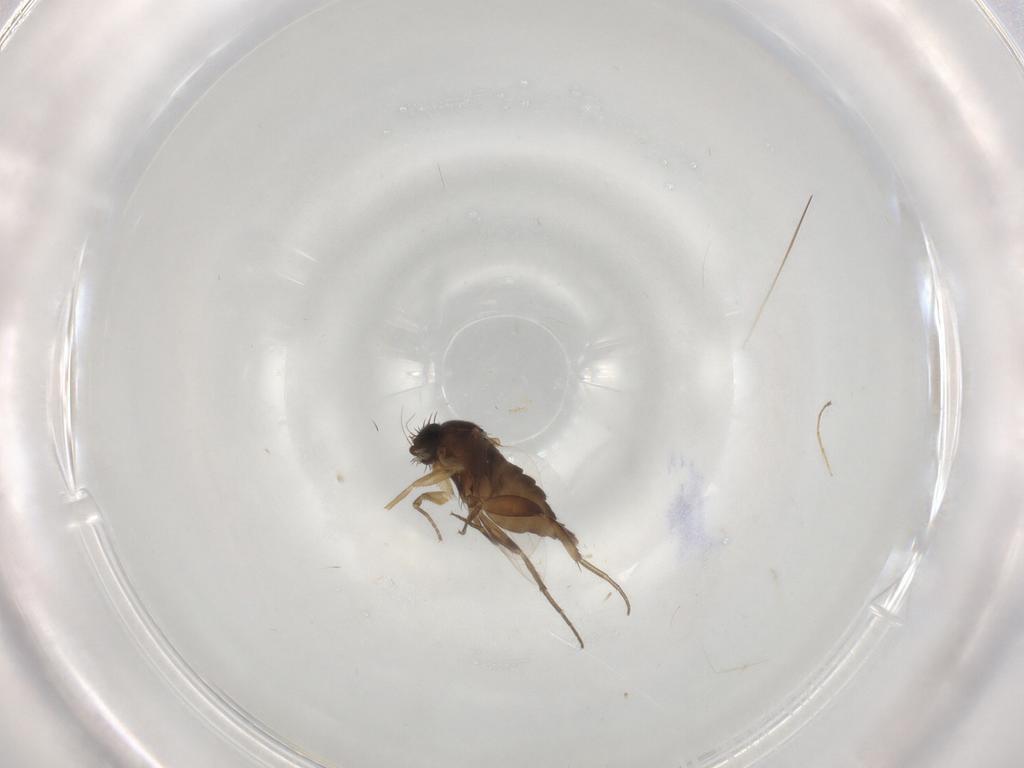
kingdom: Animalia
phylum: Arthropoda
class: Insecta
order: Diptera
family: Phoridae
